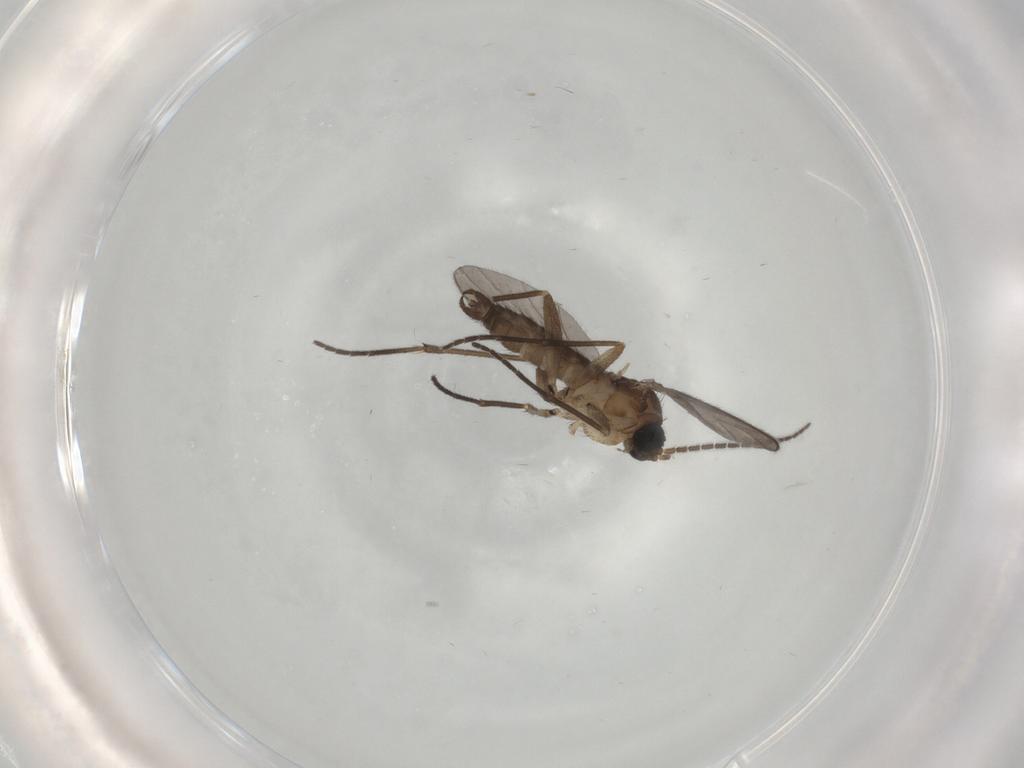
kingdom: Animalia
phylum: Arthropoda
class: Insecta
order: Diptera
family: Sciaridae
